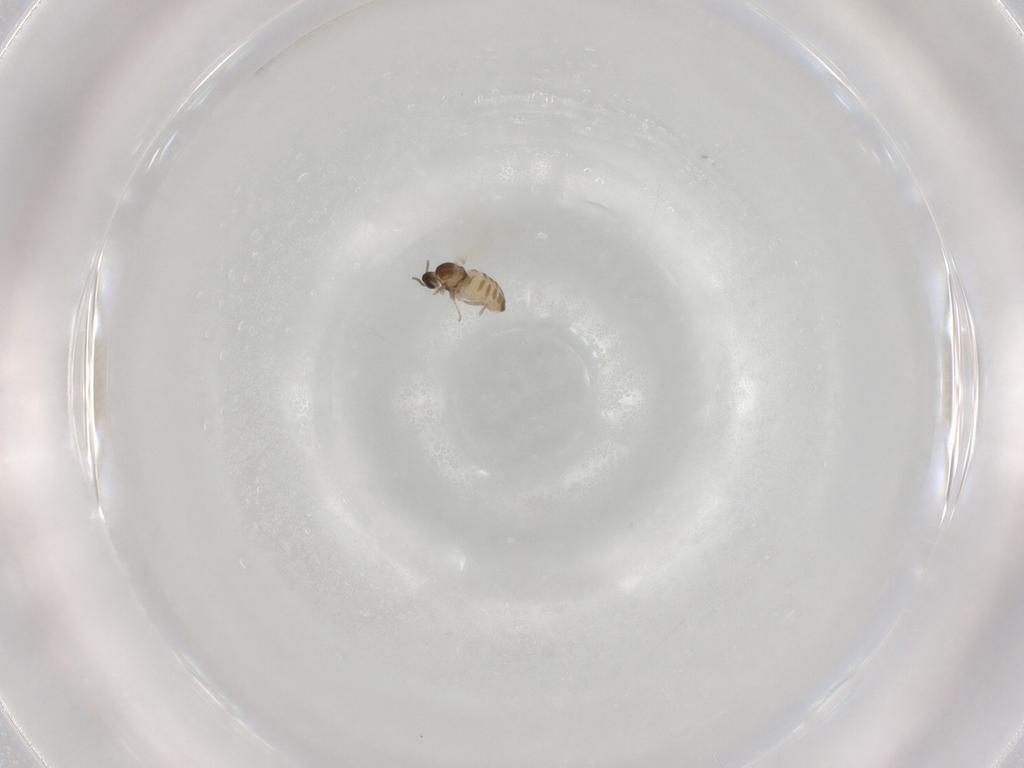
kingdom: Animalia
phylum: Arthropoda
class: Insecta
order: Diptera
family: Cecidomyiidae
